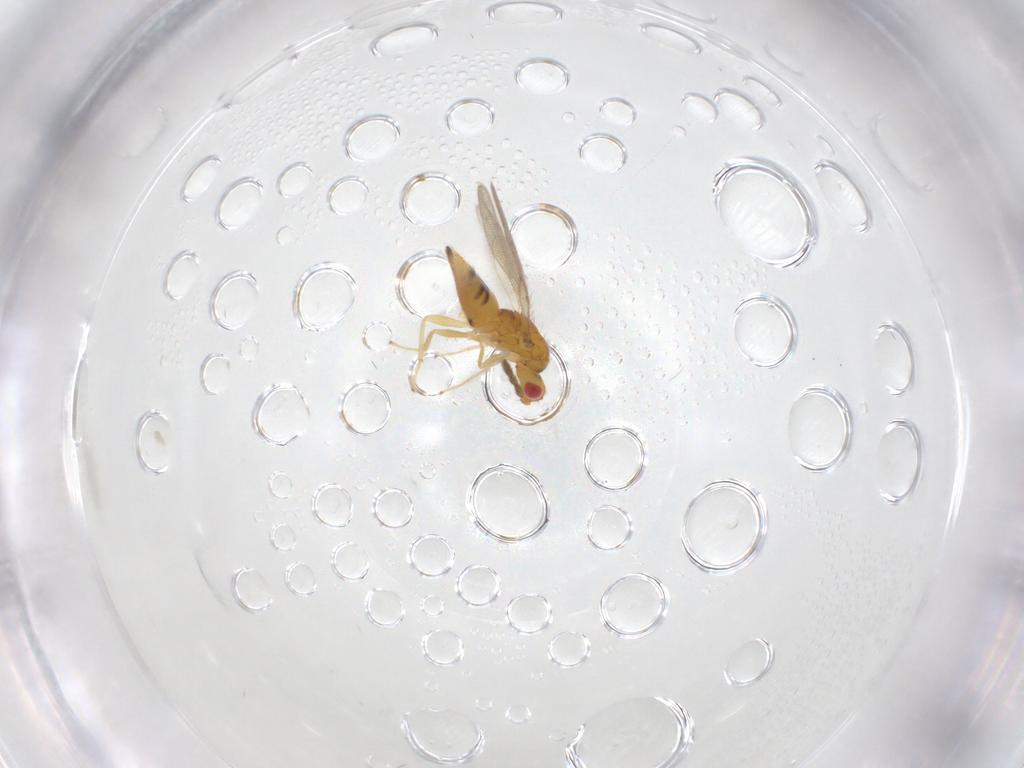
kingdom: Animalia
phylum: Arthropoda
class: Insecta
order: Hymenoptera
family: Eulophidae
